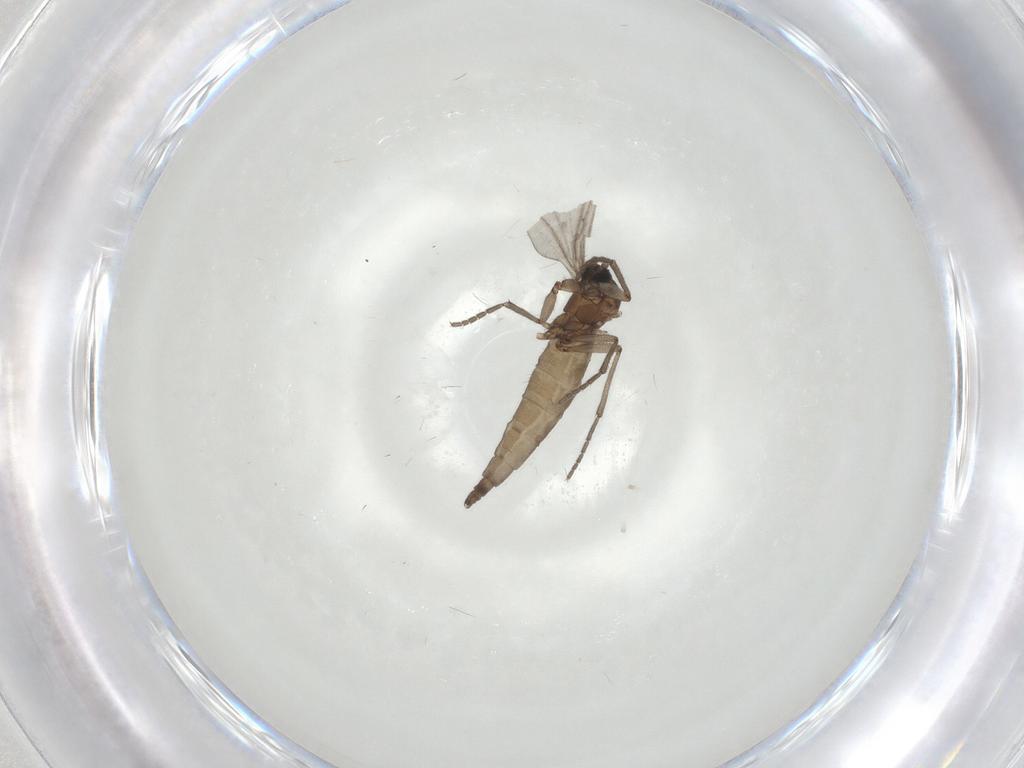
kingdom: Animalia
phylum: Arthropoda
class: Insecta
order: Diptera
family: Sciaridae
